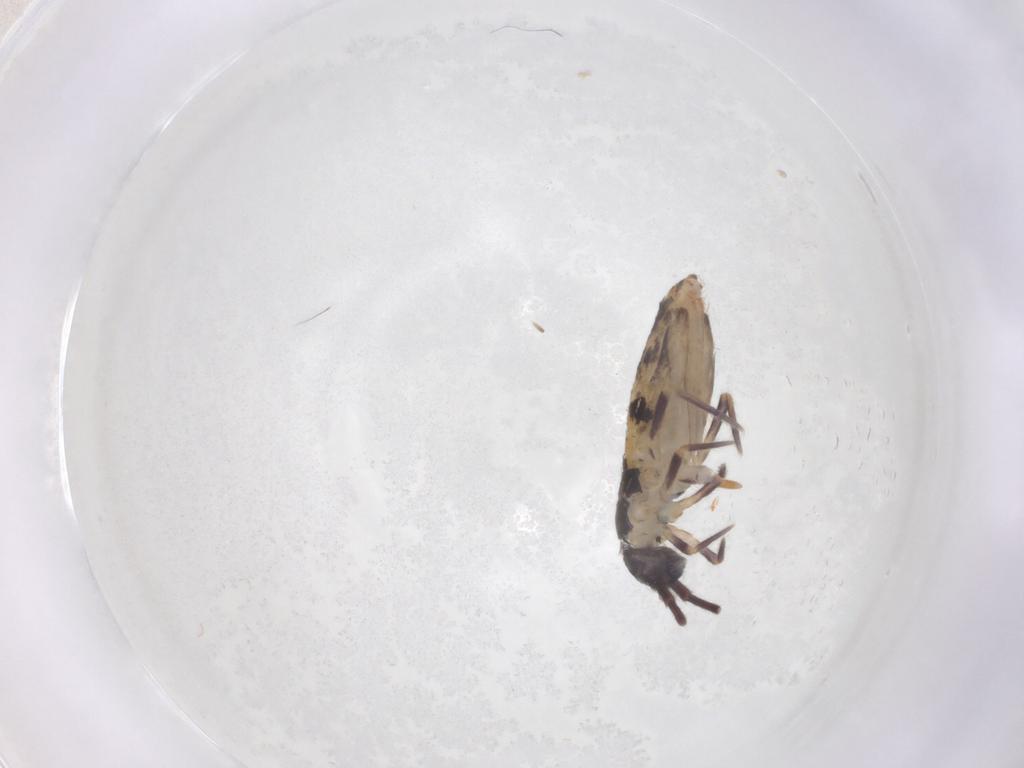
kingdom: Animalia
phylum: Arthropoda
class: Collembola
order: Entomobryomorpha
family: Entomobryidae
